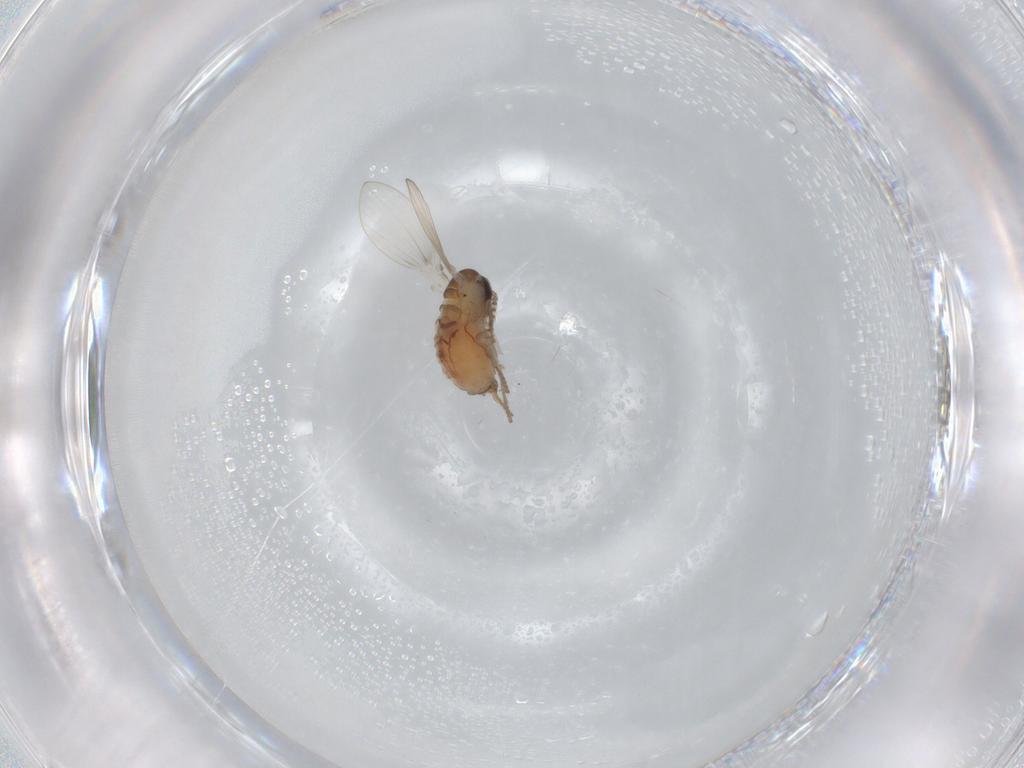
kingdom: Animalia
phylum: Arthropoda
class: Insecta
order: Diptera
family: Psychodidae
